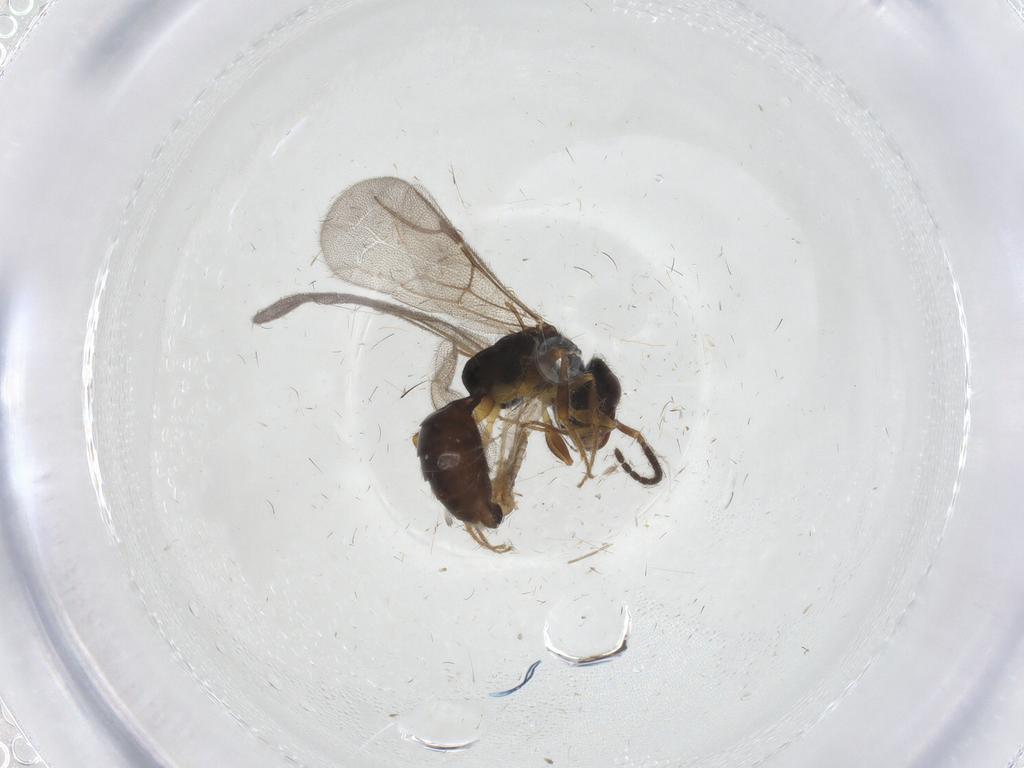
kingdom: Animalia
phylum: Arthropoda
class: Insecta
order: Hymenoptera
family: Bethylidae
